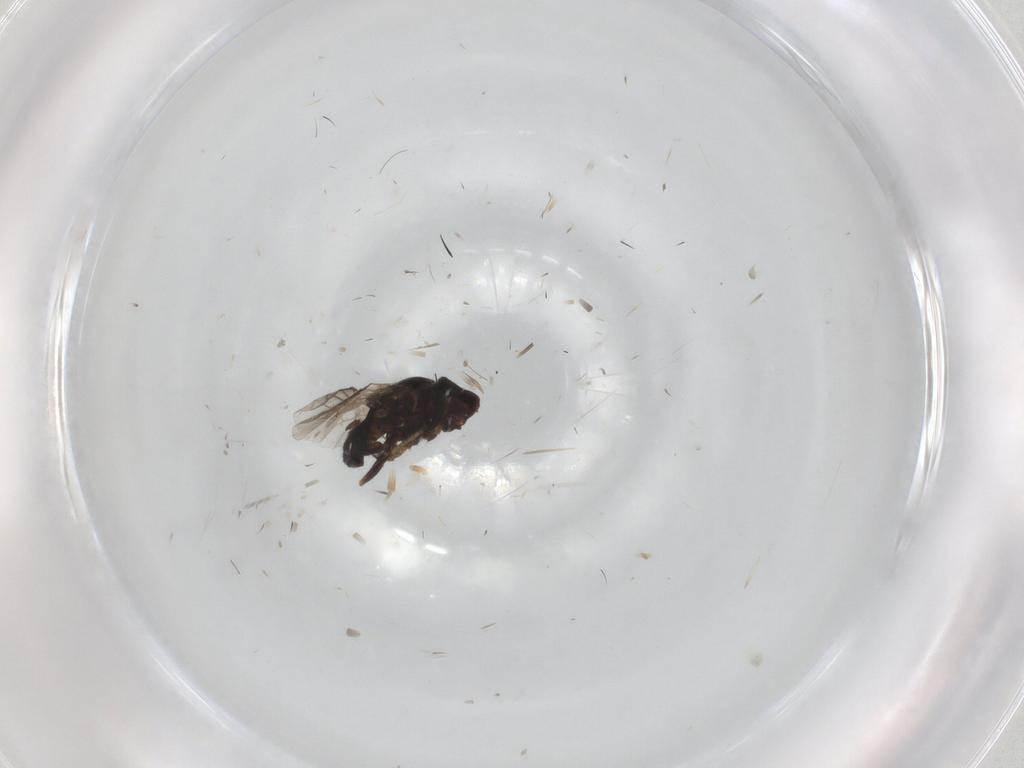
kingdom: Animalia
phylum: Arthropoda
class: Insecta
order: Diptera
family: Chloropidae
